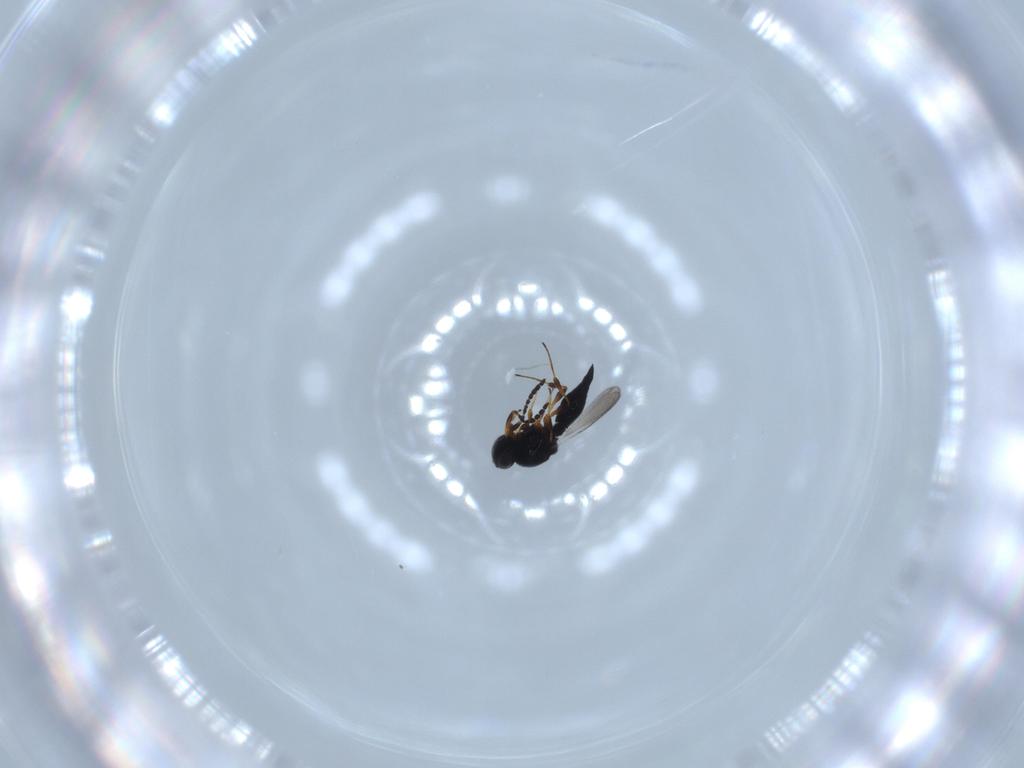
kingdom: Animalia
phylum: Arthropoda
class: Insecta
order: Hymenoptera
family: Platygastridae
